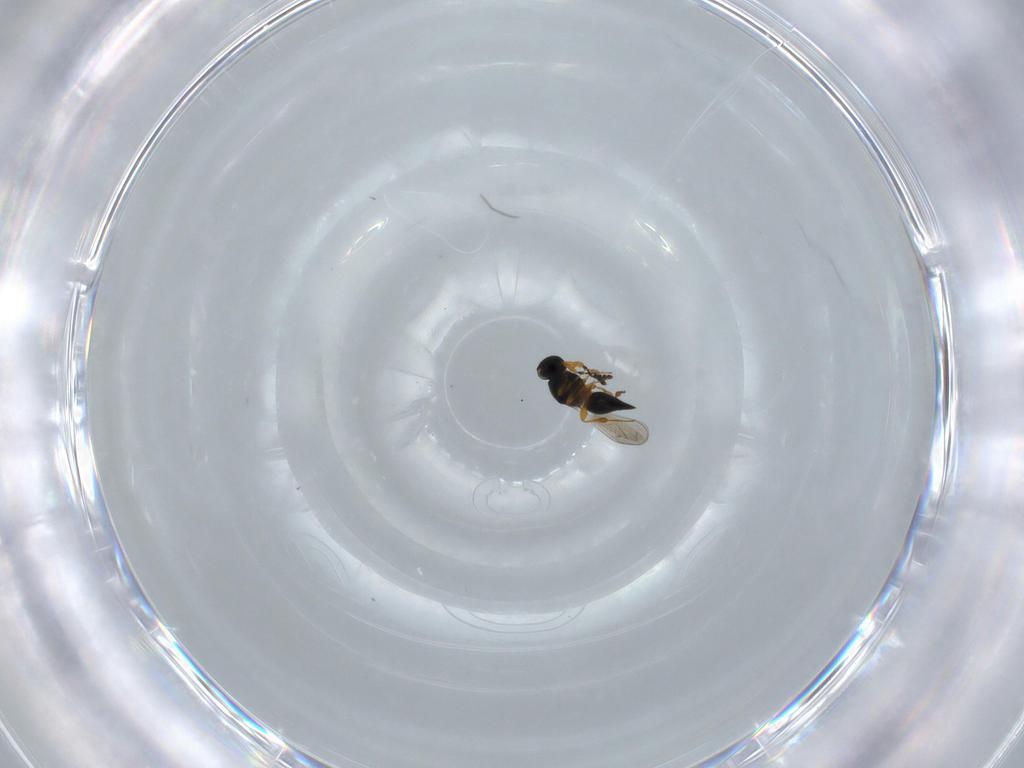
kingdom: Animalia
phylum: Arthropoda
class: Insecta
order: Hymenoptera
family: Platygastridae
